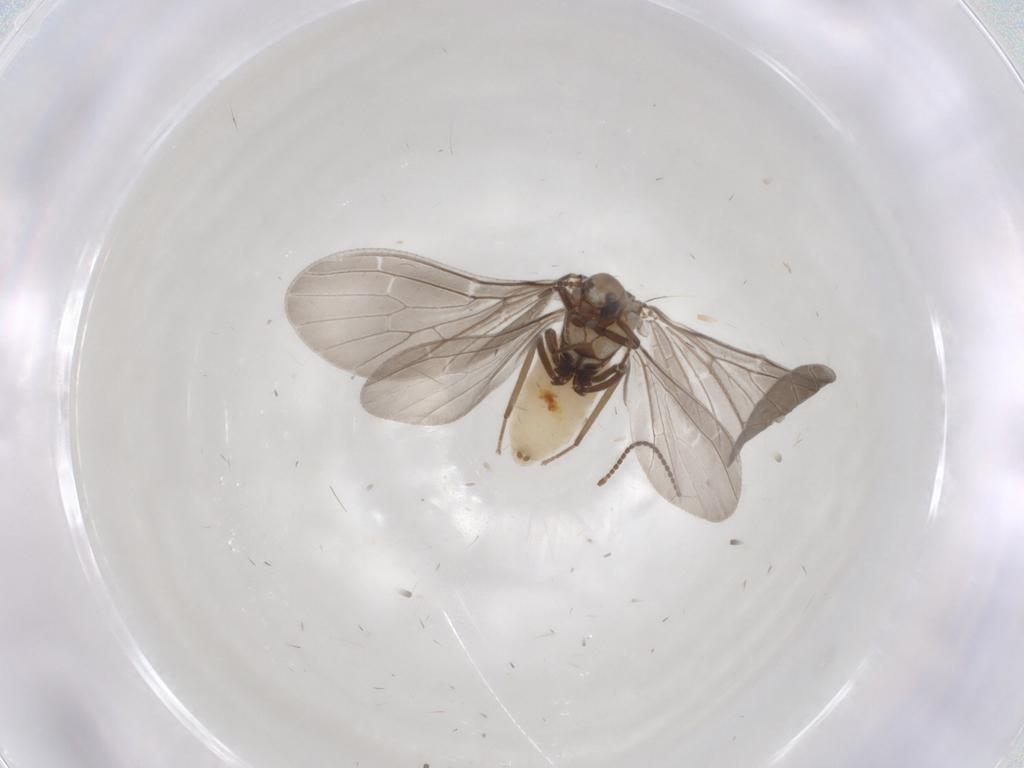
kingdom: Animalia
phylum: Arthropoda
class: Insecta
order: Neuroptera
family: Coniopterygidae
